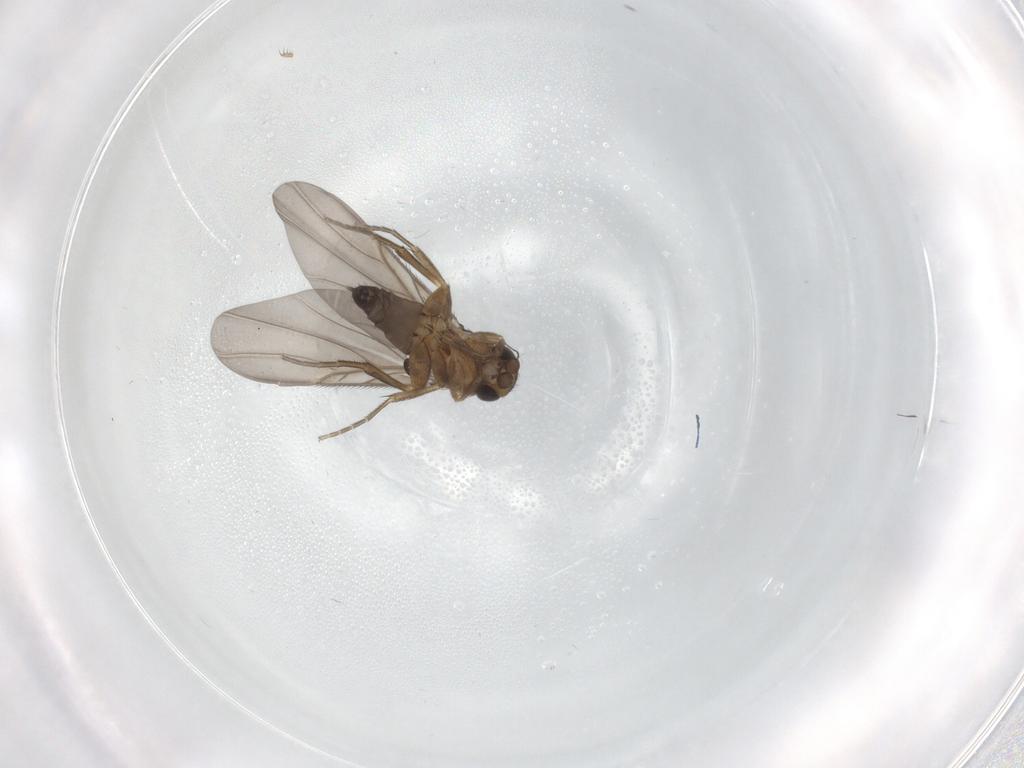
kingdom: Animalia
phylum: Arthropoda
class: Insecta
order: Diptera
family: Phoridae
